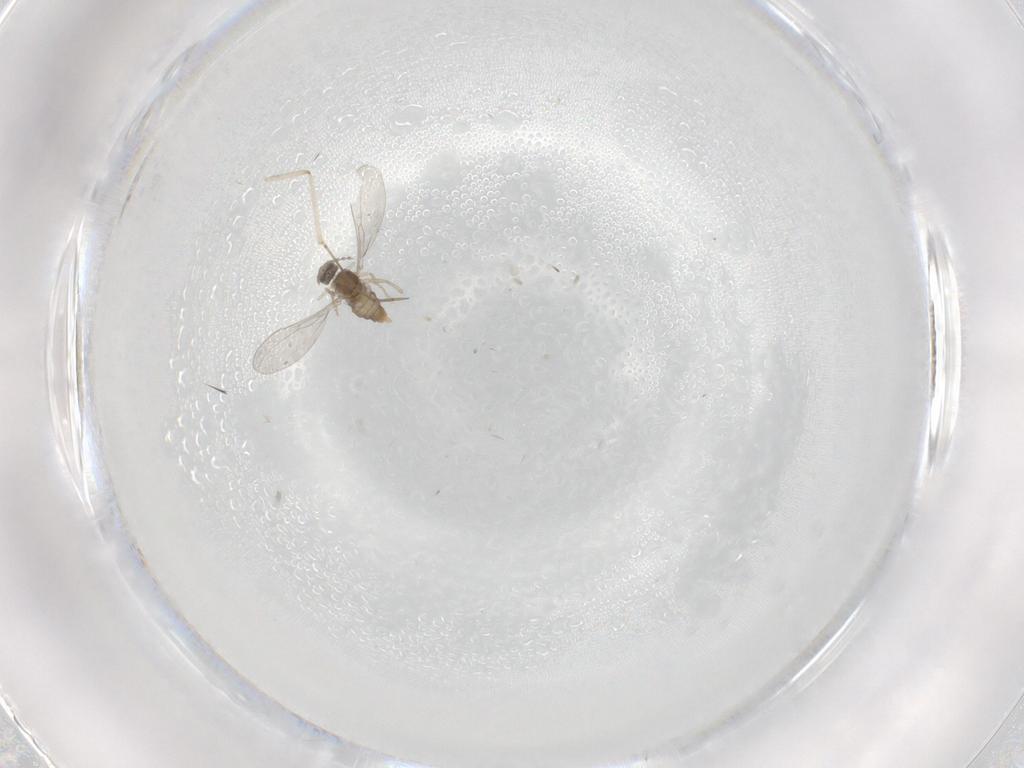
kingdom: Animalia
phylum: Arthropoda
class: Insecta
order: Diptera
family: Cecidomyiidae
